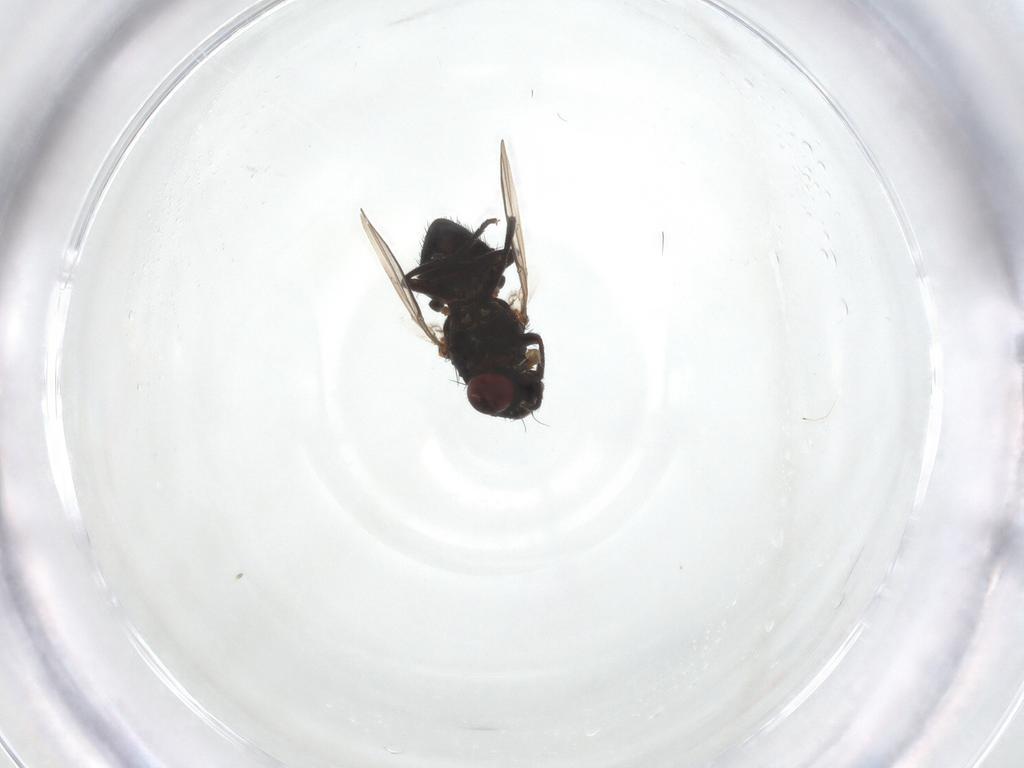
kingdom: Animalia
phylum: Arthropoda
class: Insecta
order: Diptera
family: Agromyzidae
